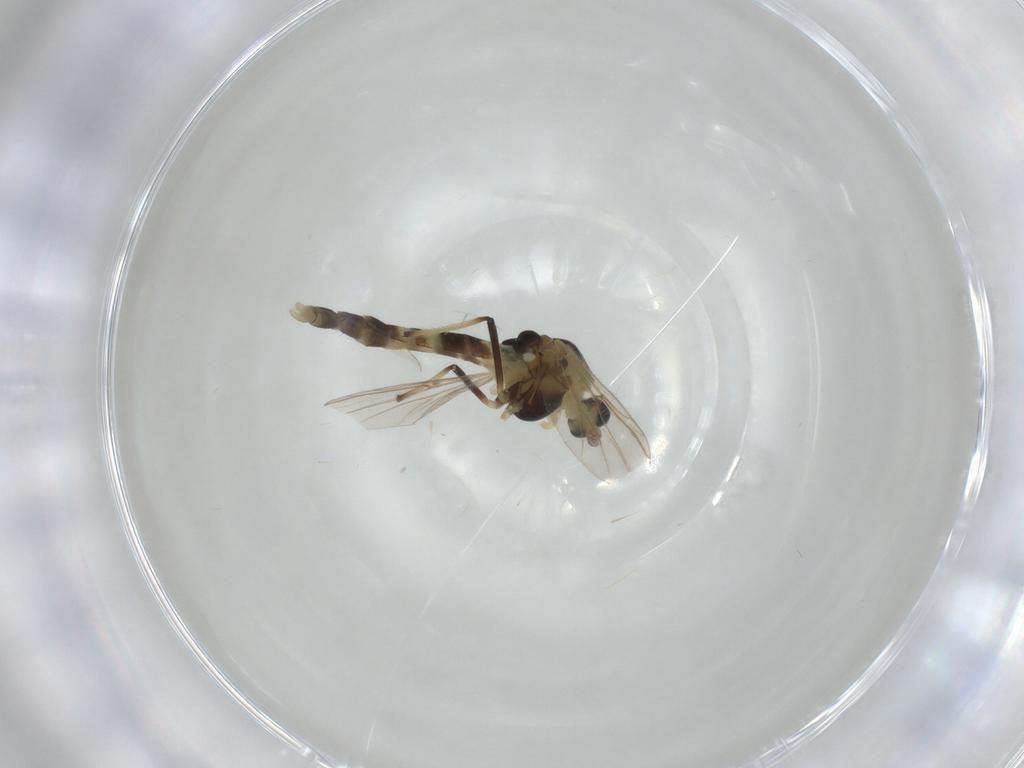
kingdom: Animalia
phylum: Arthropoda
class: Insecta
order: Diptera
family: Chironomidae
